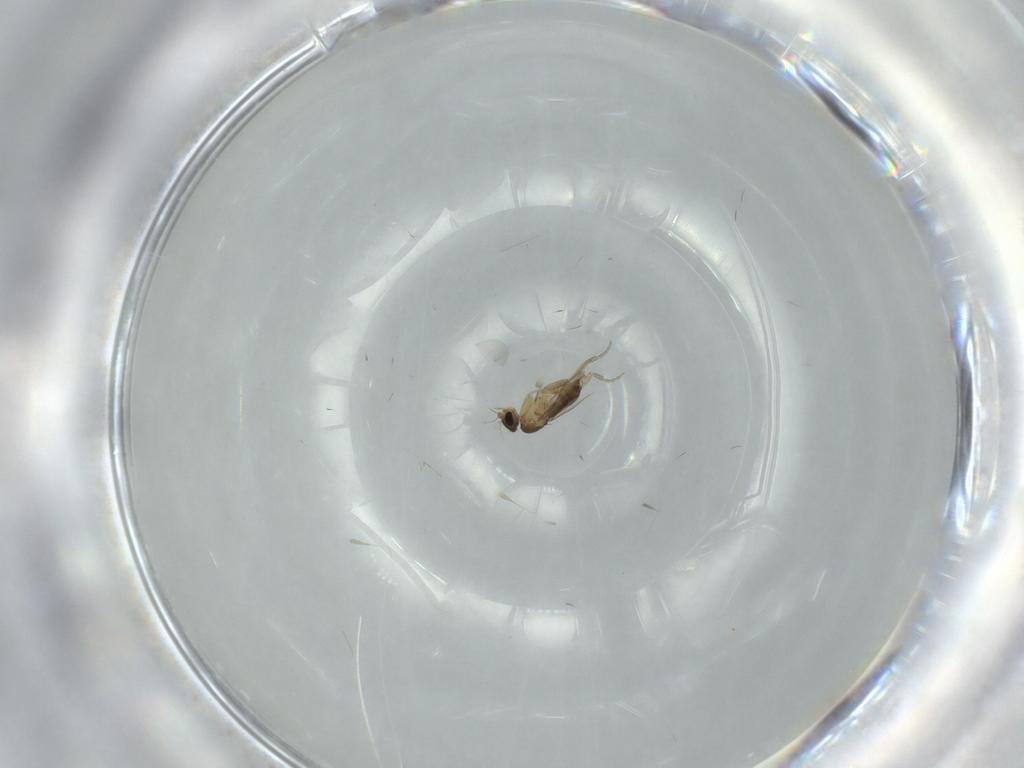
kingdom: Animalia
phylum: Arthropoda
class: Insecta
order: Diptera
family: Phoridae
